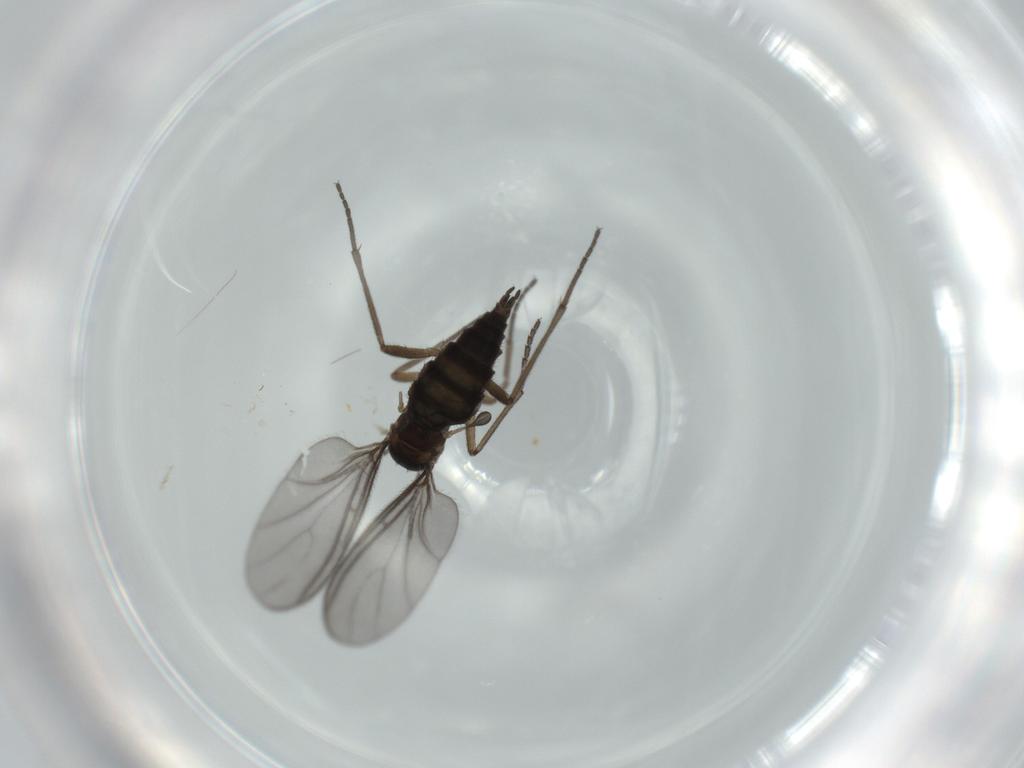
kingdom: Animalia
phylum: Arthropoda
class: Insecta
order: Diptera
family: Sciaridae
